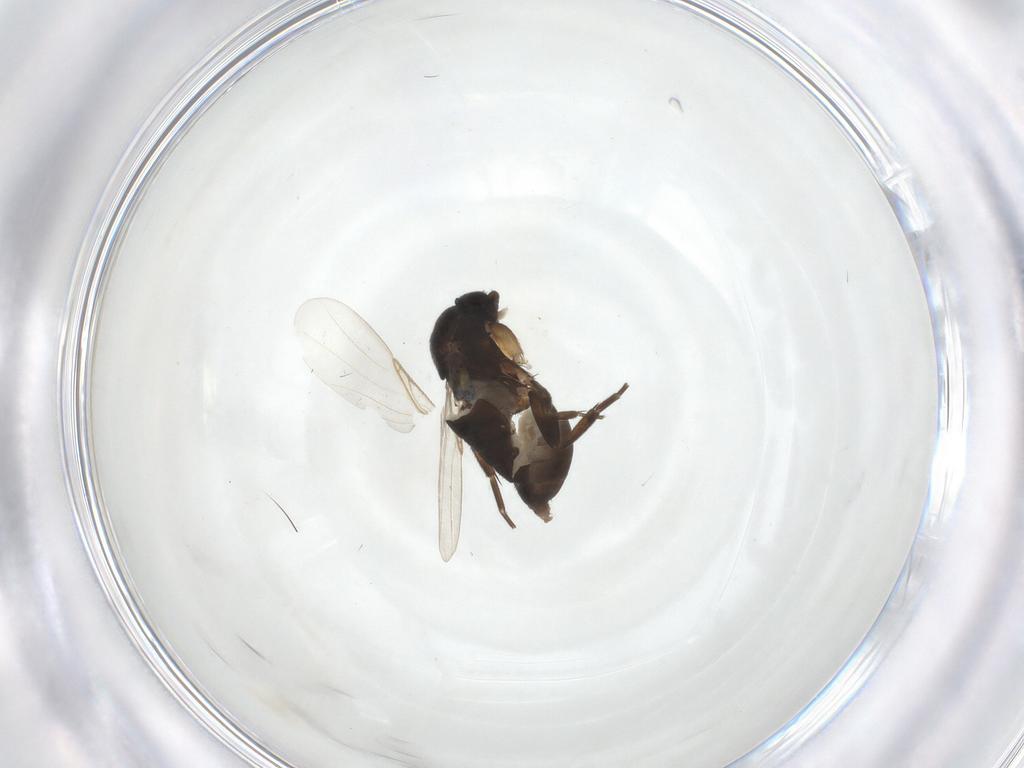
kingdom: Animalia
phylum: Arthropoda
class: Insecta
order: Diptera
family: Phoridae
